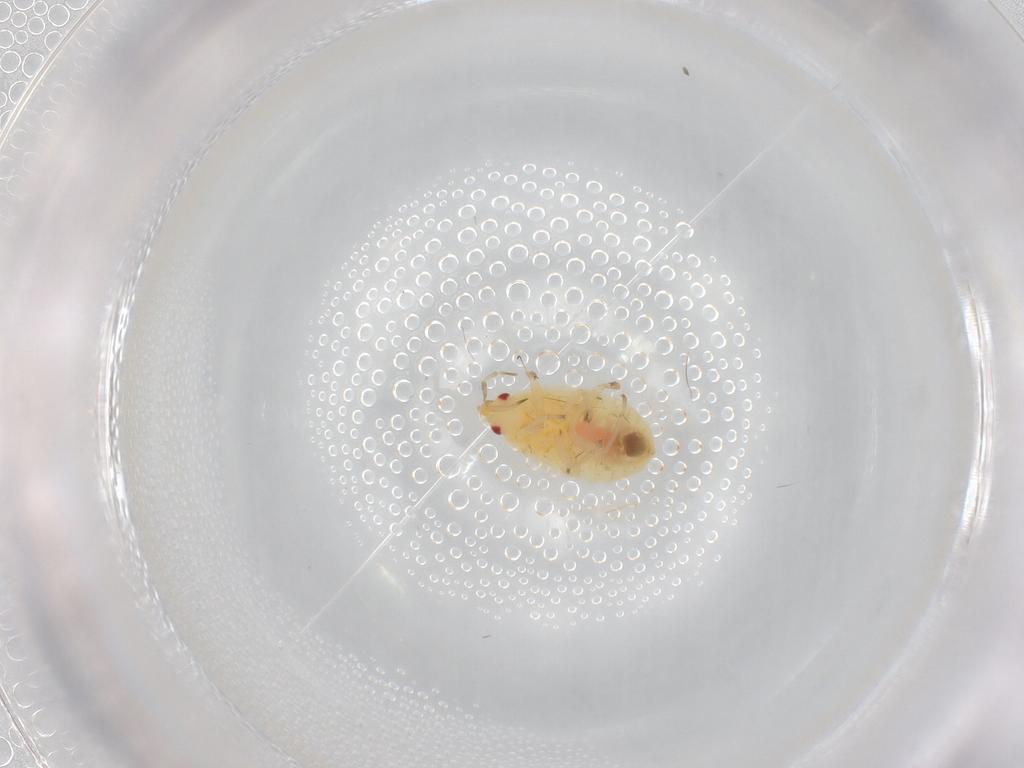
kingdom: Animalia
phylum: Arthropoda
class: Insecta
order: Hemiptera
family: Anthocoridae
